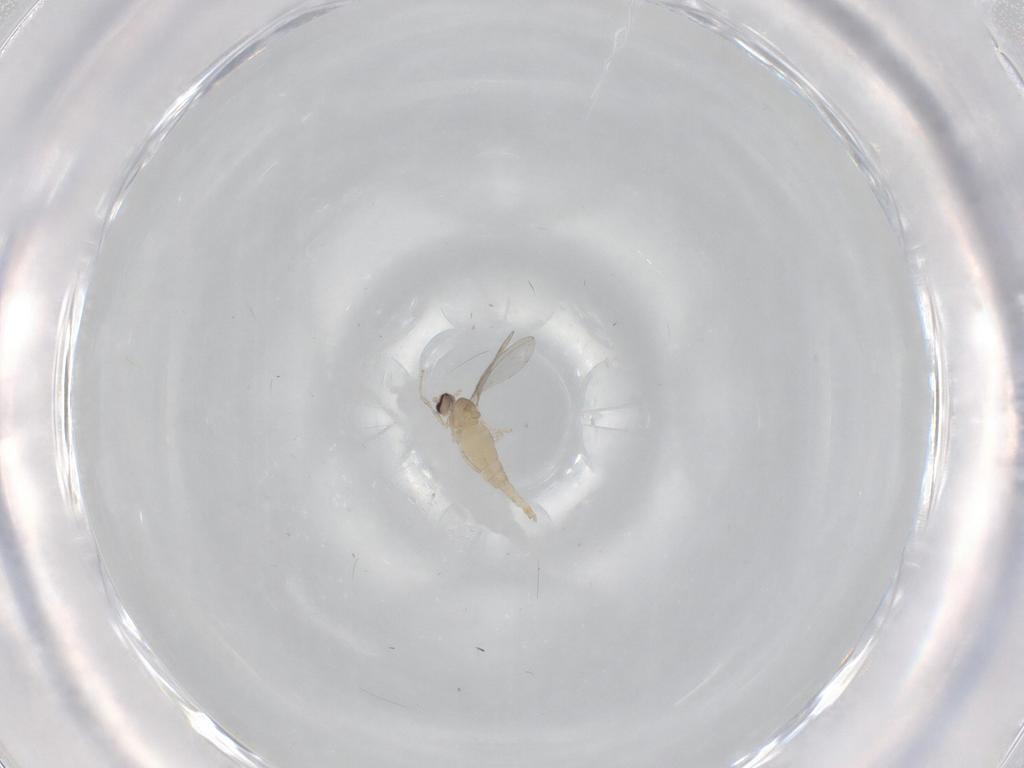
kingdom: Animalia
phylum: Arthropoda
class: Insecta
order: Diptera
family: Cecidomyiidae
